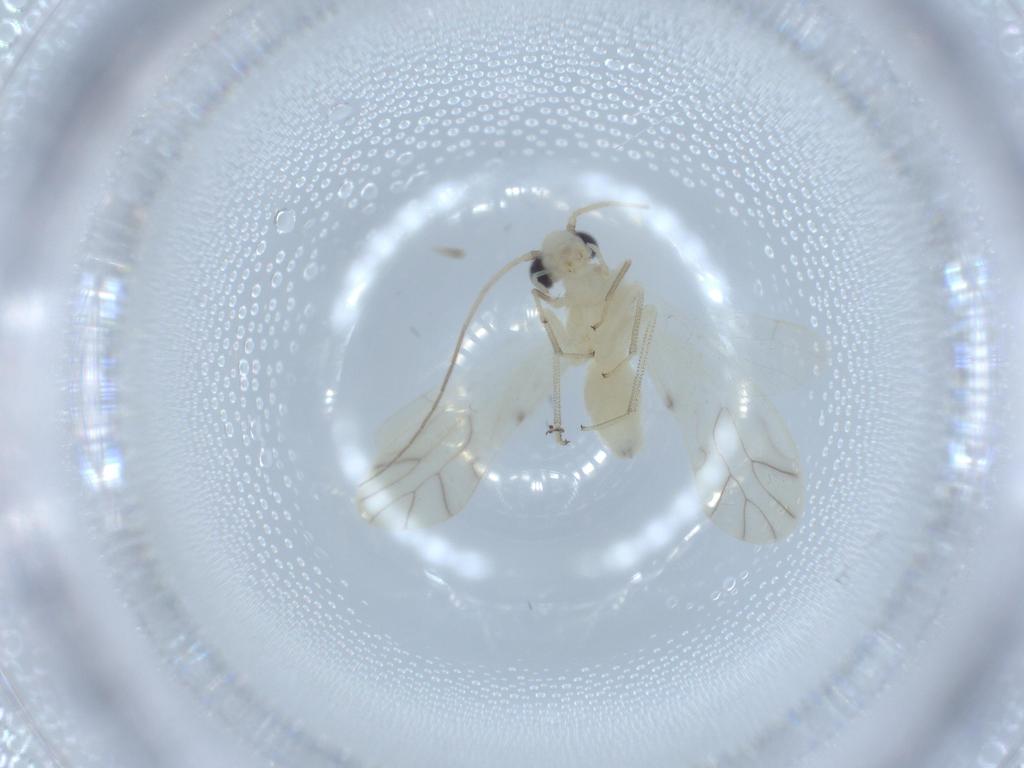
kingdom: Animalia
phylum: Arthropoda
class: Insecta
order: Psocodea
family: Caeciliusidae
